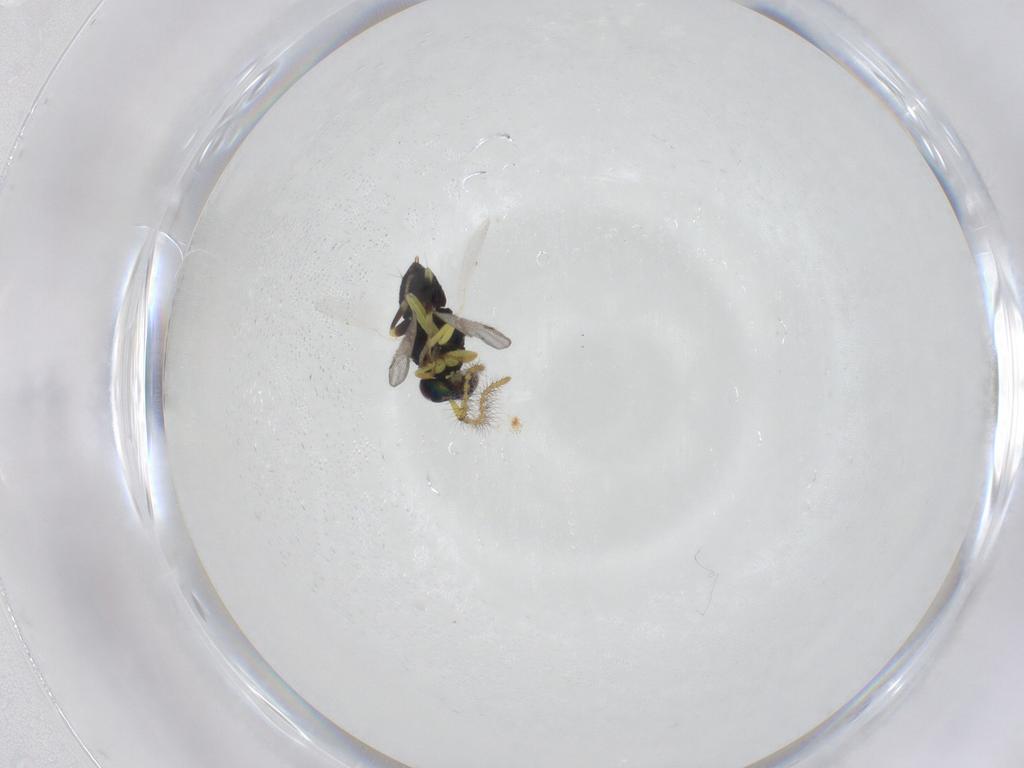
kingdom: Animalia
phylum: Arthropoda
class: Insecta
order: Hymenoptera
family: Braconidae
